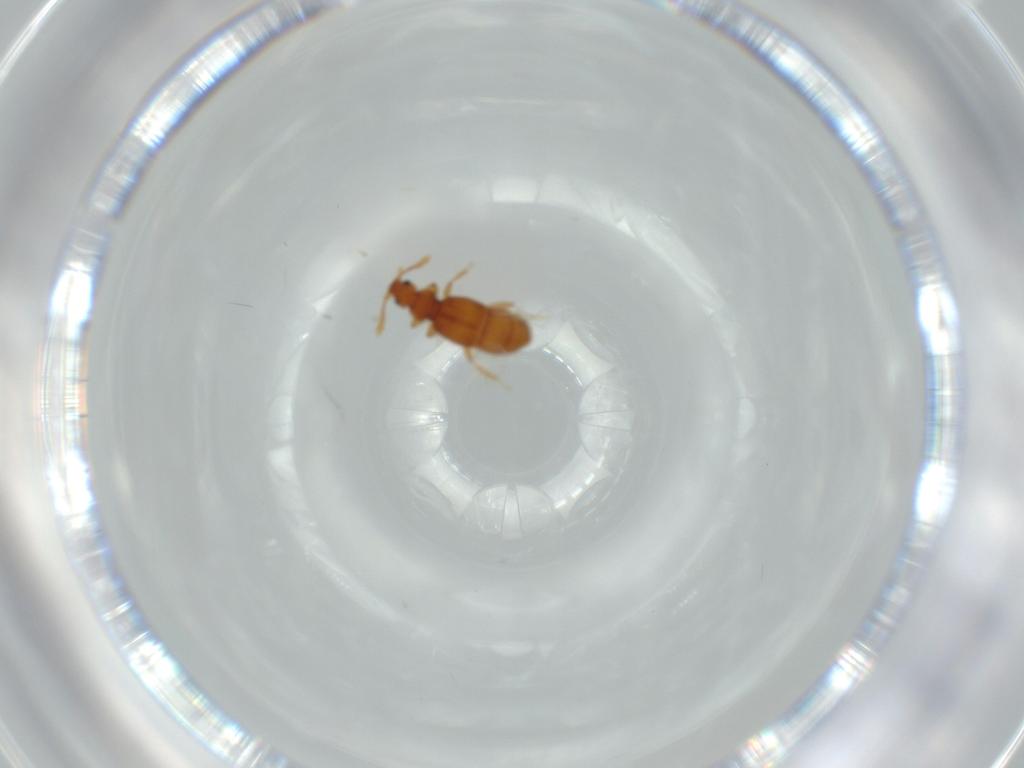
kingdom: Animalia
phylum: Arthropoda
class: Insecta
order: Coleoptera
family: Staphylinidae
